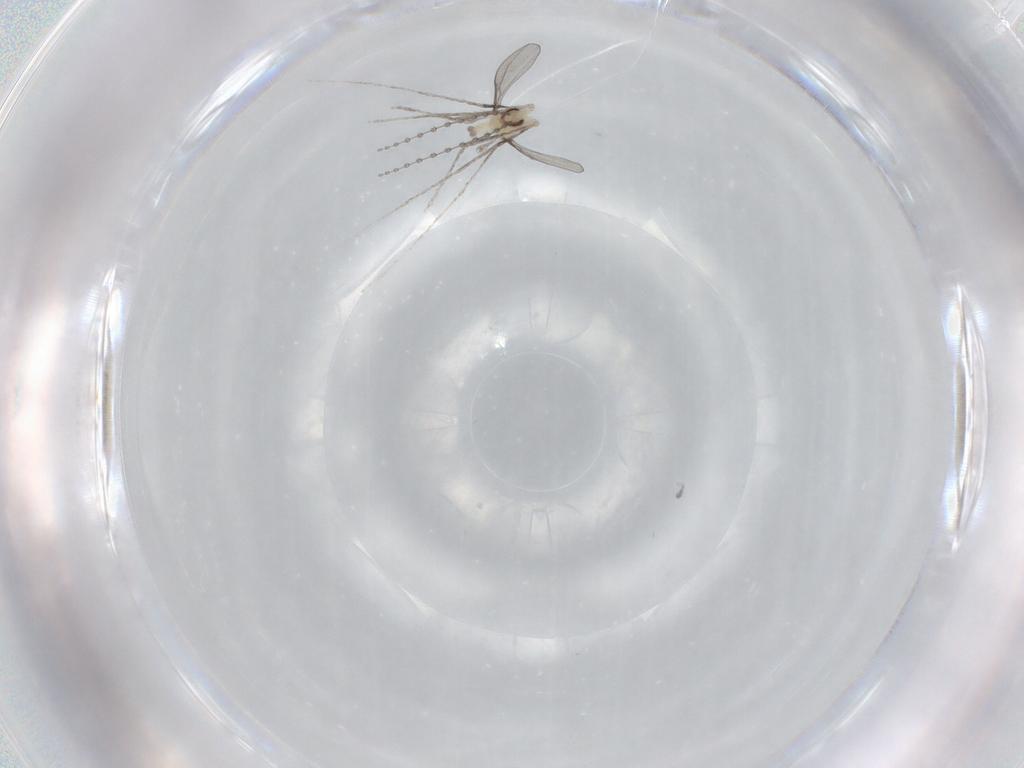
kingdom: Animalia
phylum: Arthropoda
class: Insecta
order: Diptera
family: Cecidomyiidae
